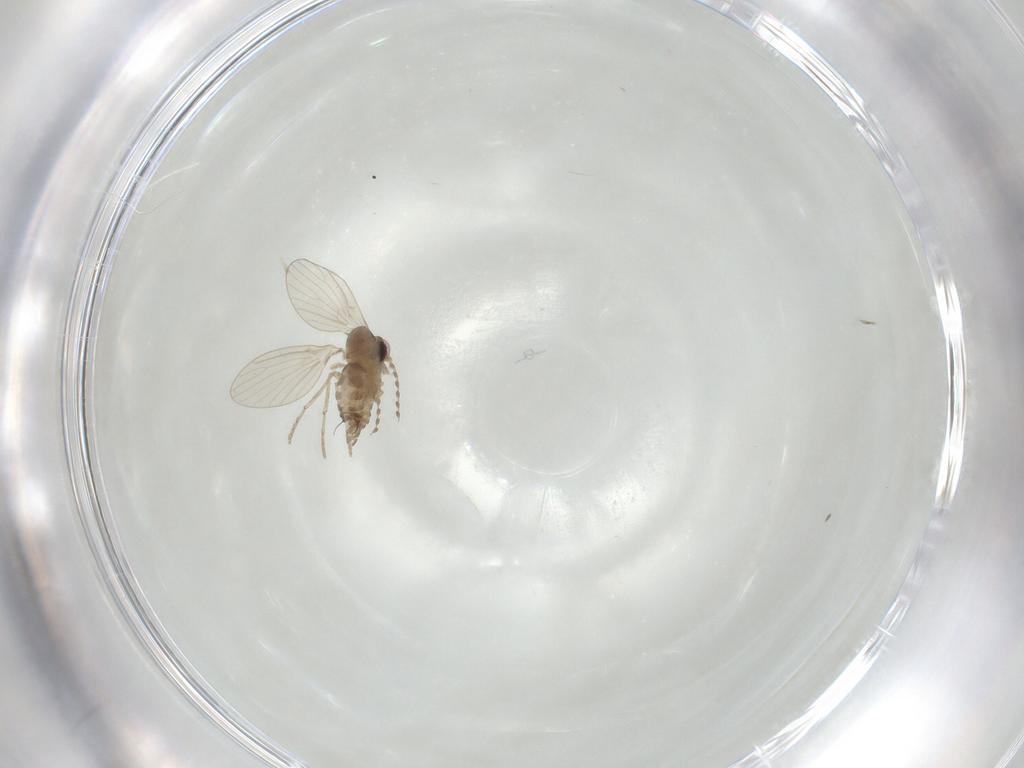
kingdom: Animalia
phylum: Arthropoda
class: Insecta
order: Diptera
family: Phoridae
